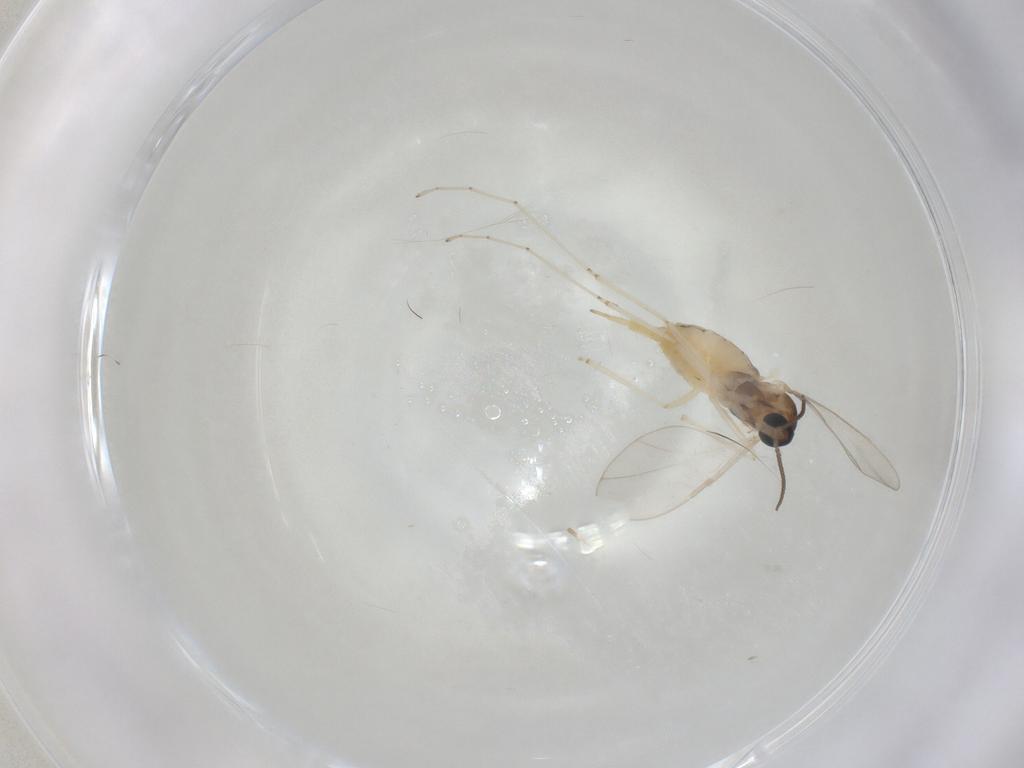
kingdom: Animalia
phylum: Arthropoda
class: Insecta
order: Diptera
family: Cecidomyiidae
